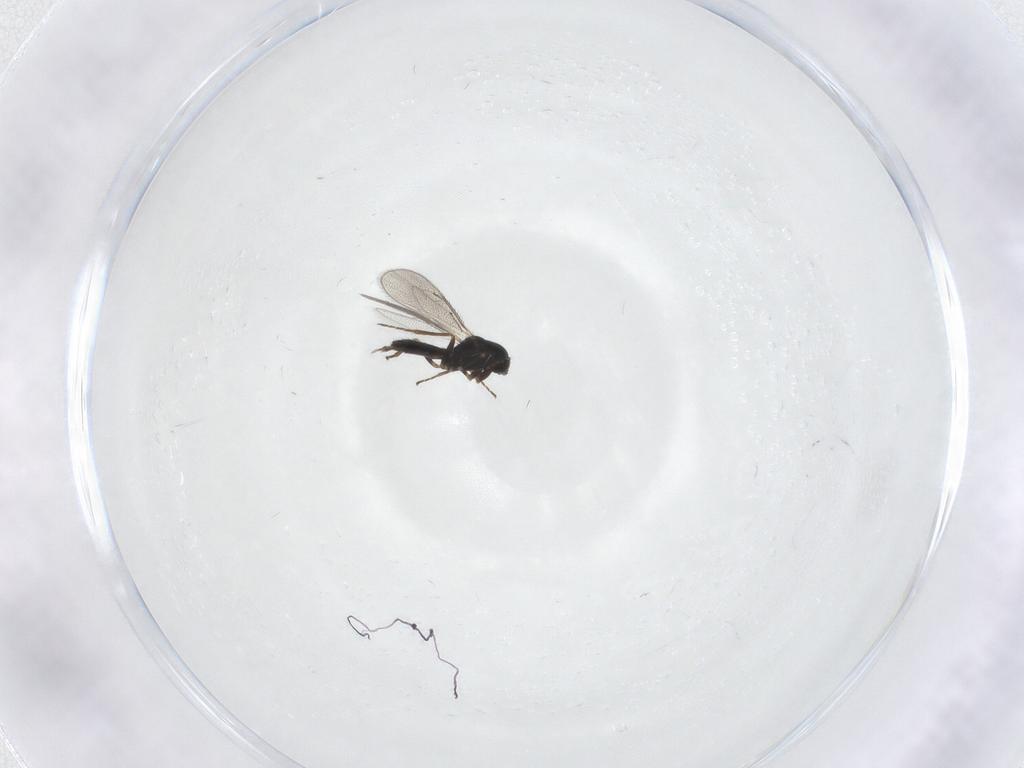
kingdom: Animalia
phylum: Arthropoda
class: Insecta
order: Hymenoptera
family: Eulophidae
